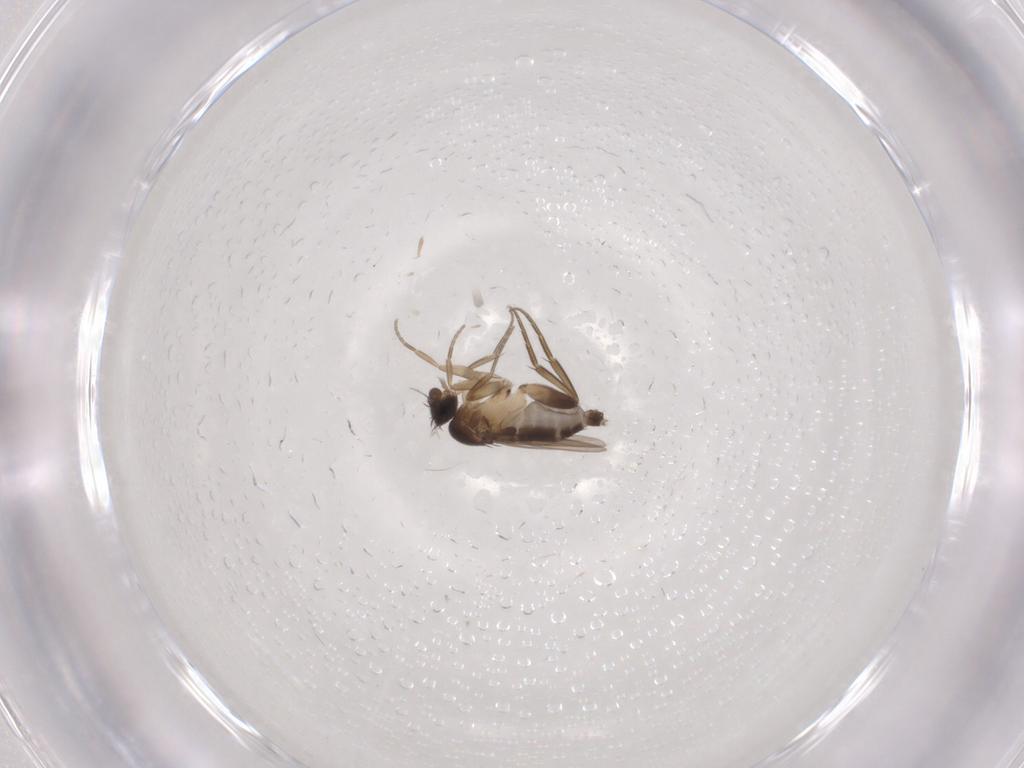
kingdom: Animalia
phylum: Arthropoda
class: Insecta
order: Diptera
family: Phoridae
